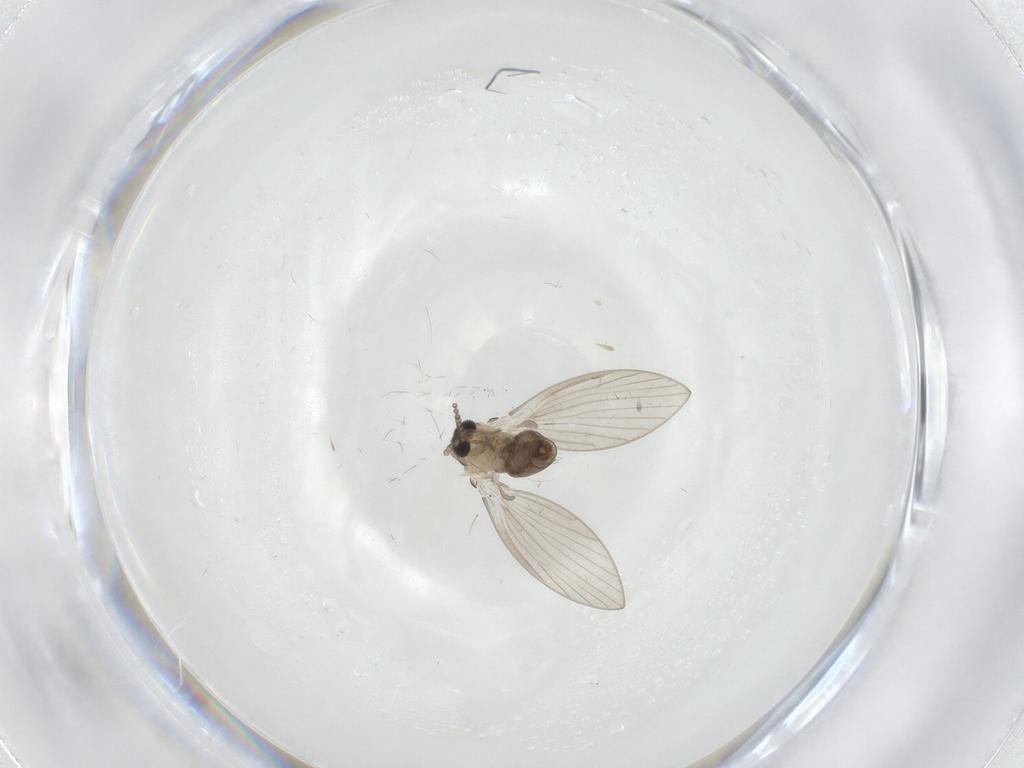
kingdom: Animalia
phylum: Arthropoda
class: Insecta
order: Diptera
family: Psychodidae
